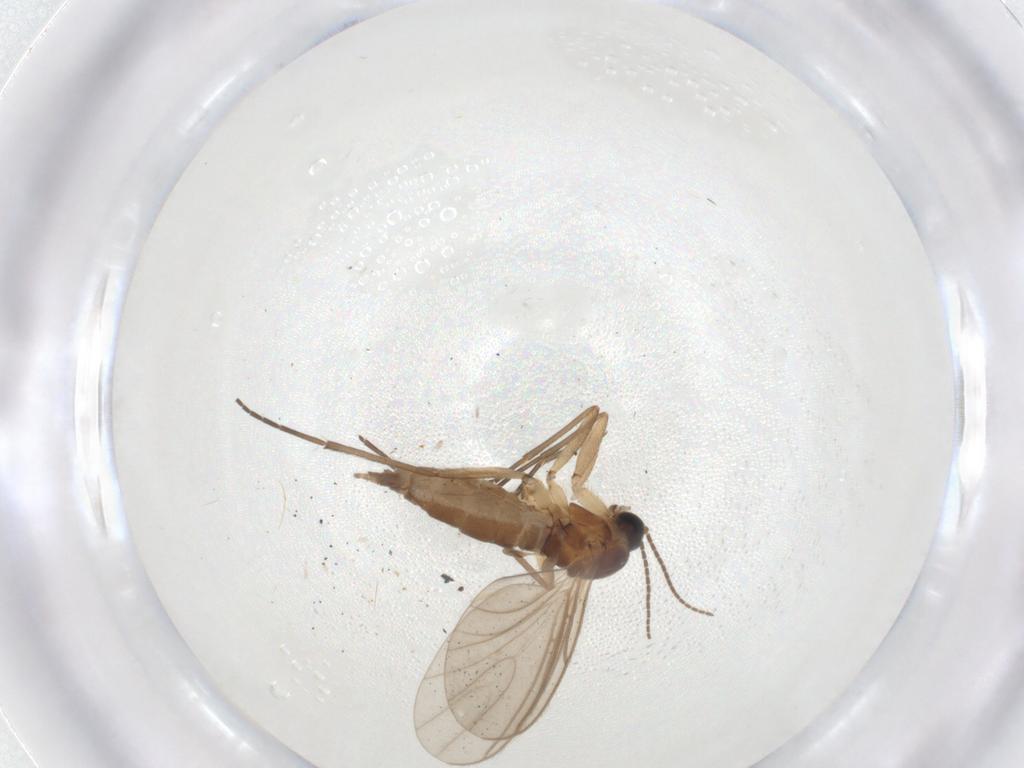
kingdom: Animalia
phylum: Arthropoda
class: Insecta
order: Diptera
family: Sciaridae
